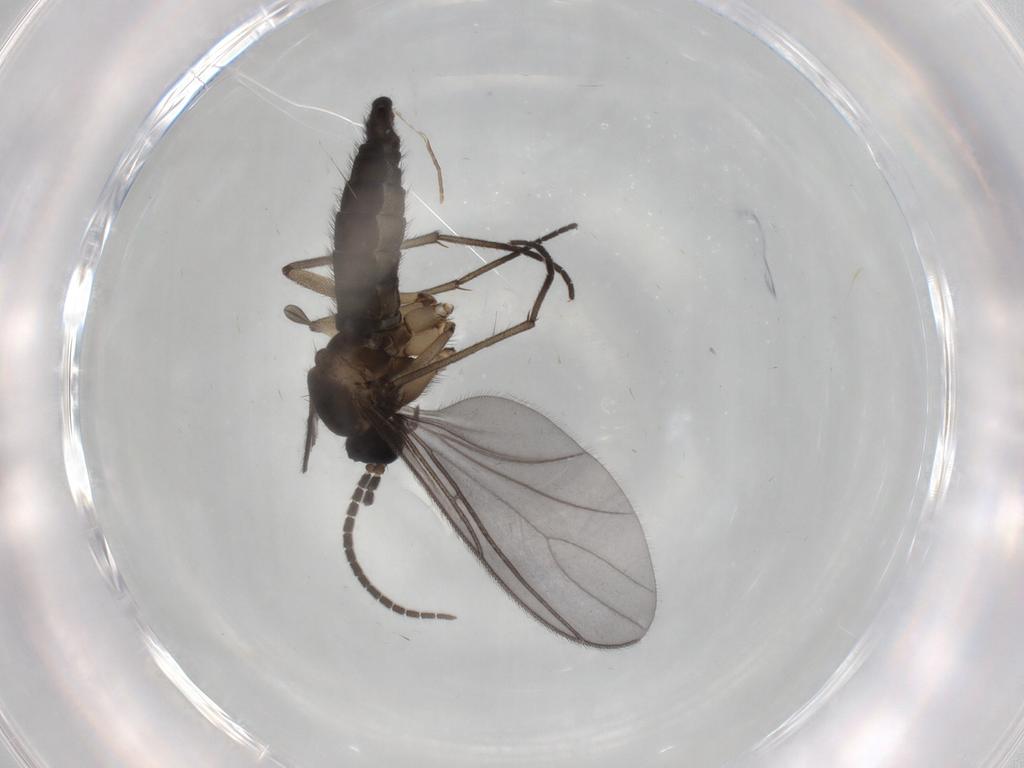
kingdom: Animalia
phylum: Arthropoda
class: Insecta
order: Diptera
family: Sciaridae
